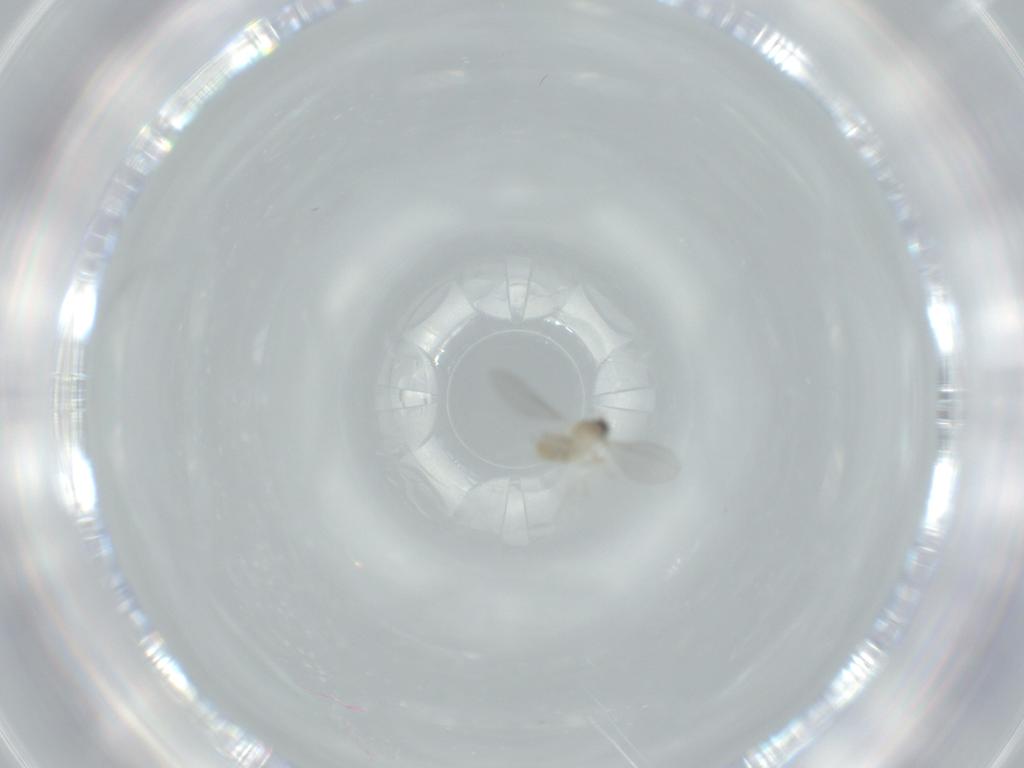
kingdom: Animalia
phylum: Arthropoda
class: Insecta
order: Diptera
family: Cecidomyiidae
